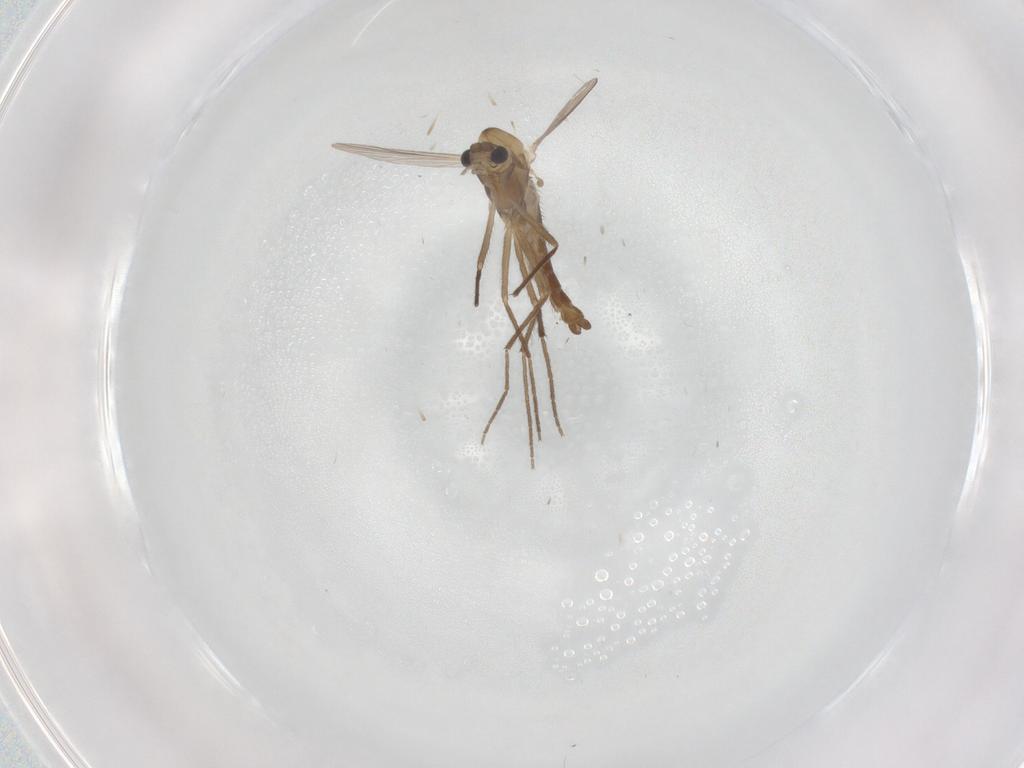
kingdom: Animalia
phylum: Arthropoda
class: Insecta
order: Diptera
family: Chironomidae
